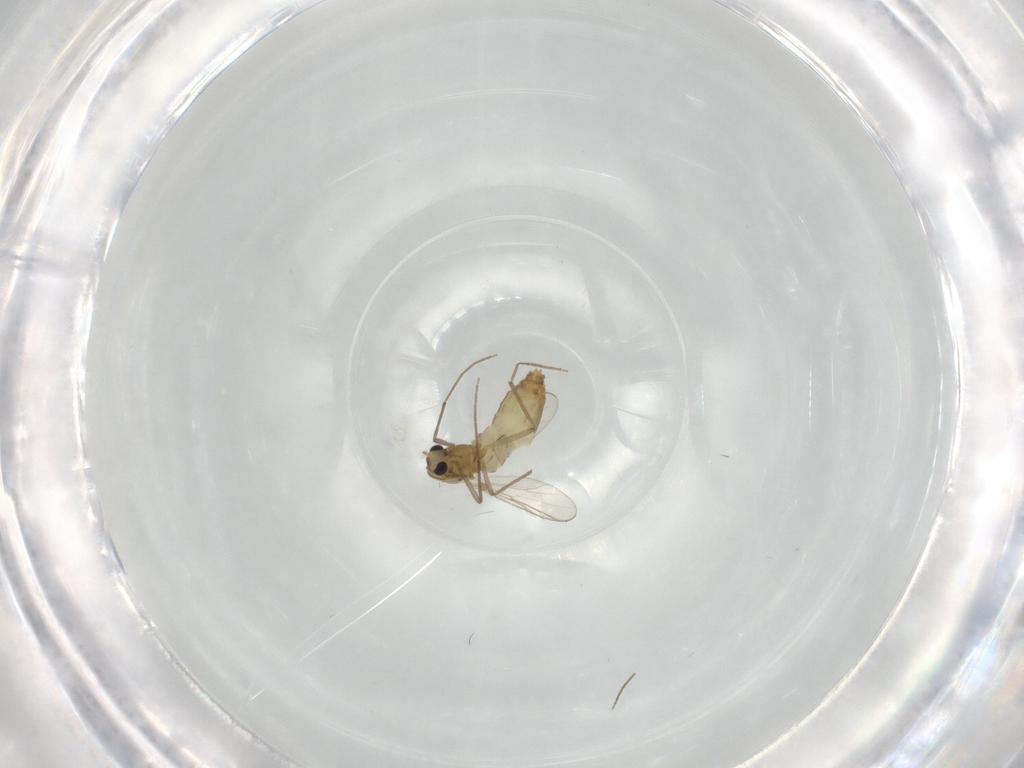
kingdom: Animalia
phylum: Arthropoda
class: Insecta
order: Diptera
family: Chironomidae
